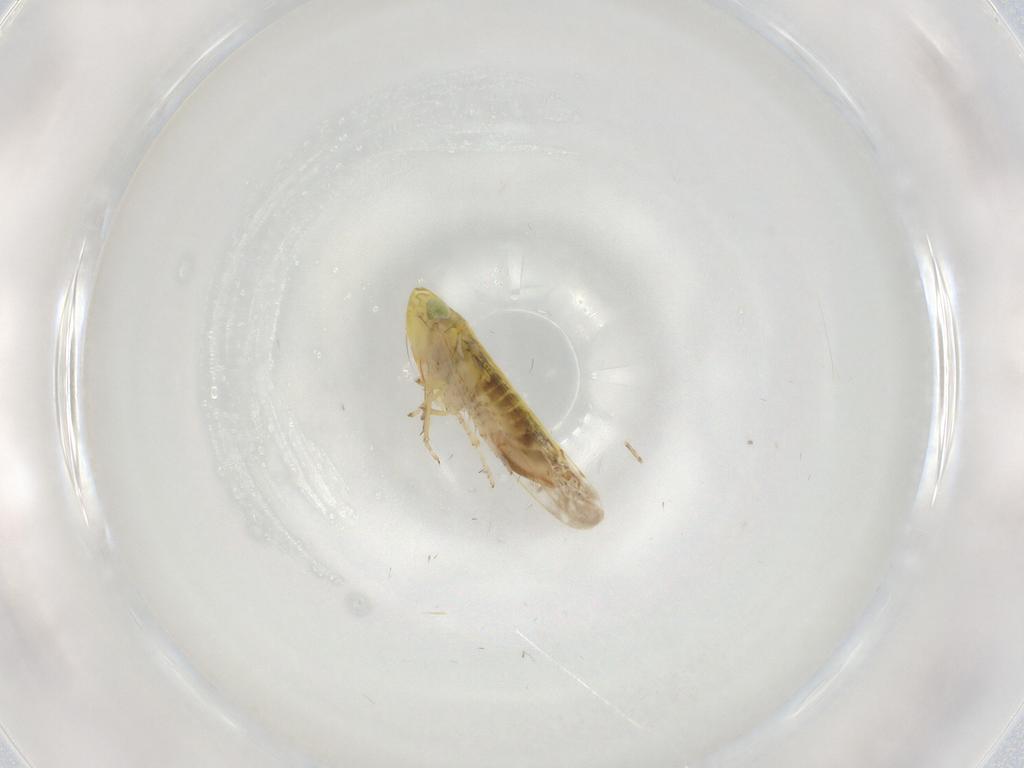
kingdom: Animalia
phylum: Arthropoda
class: Insecta
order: Hemiptera
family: Cicadellidae
